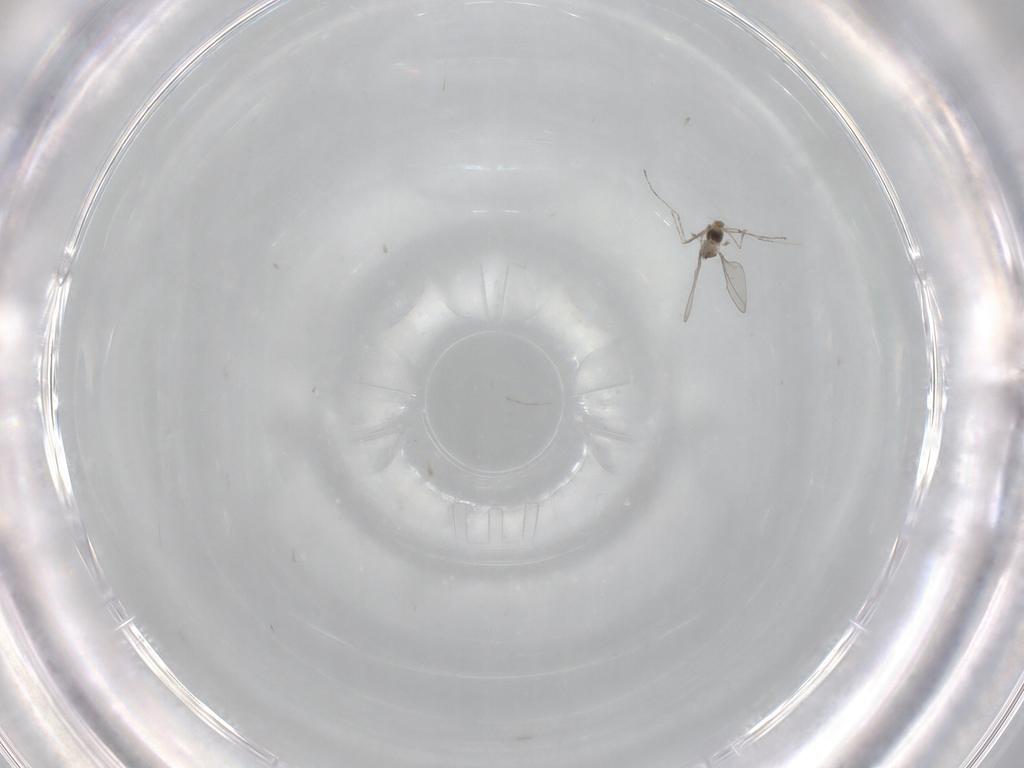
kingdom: Animalia
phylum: Arthropoda
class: Insecta
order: Diptera
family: Cecidomyiidae
